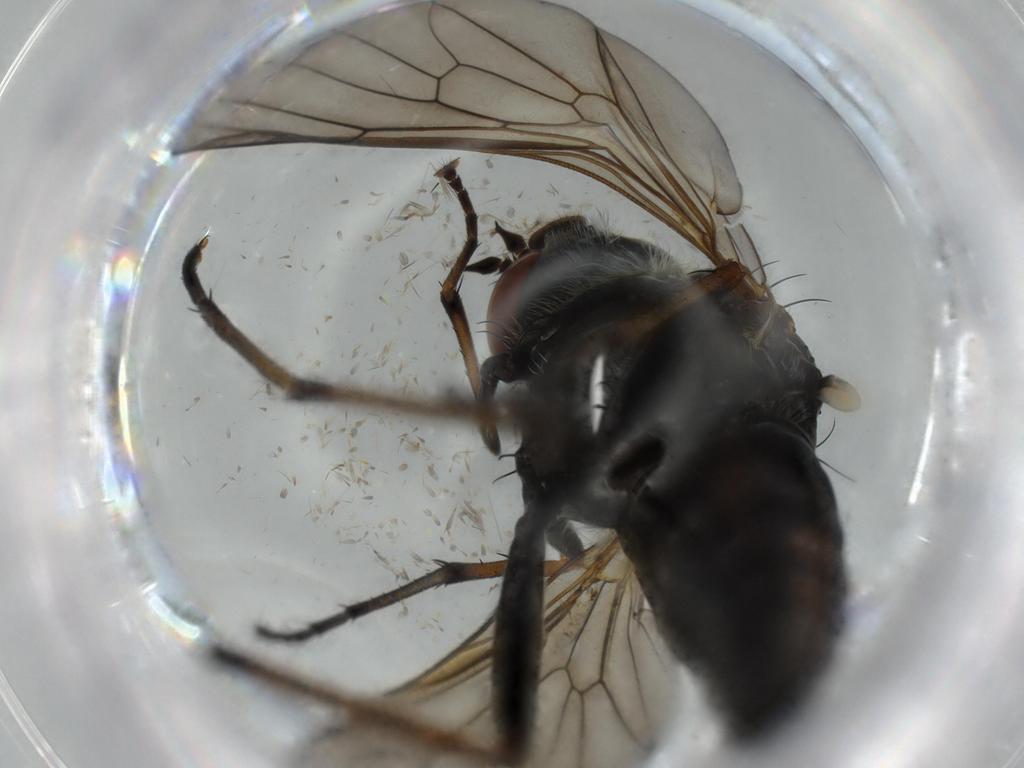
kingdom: Animalia
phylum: Arthropoda
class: Insecta
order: Diptera
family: Therevidae
